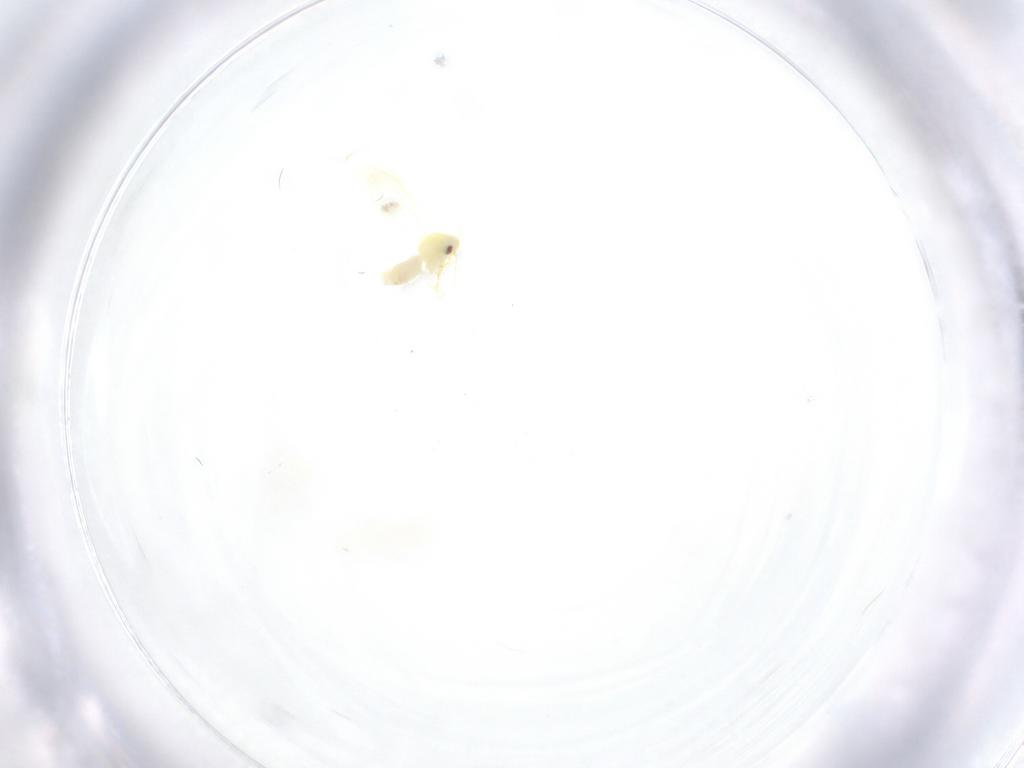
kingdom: Animalia
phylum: Arthropoda
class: Insecta
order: Hemiptera
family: Aleyrodidae
